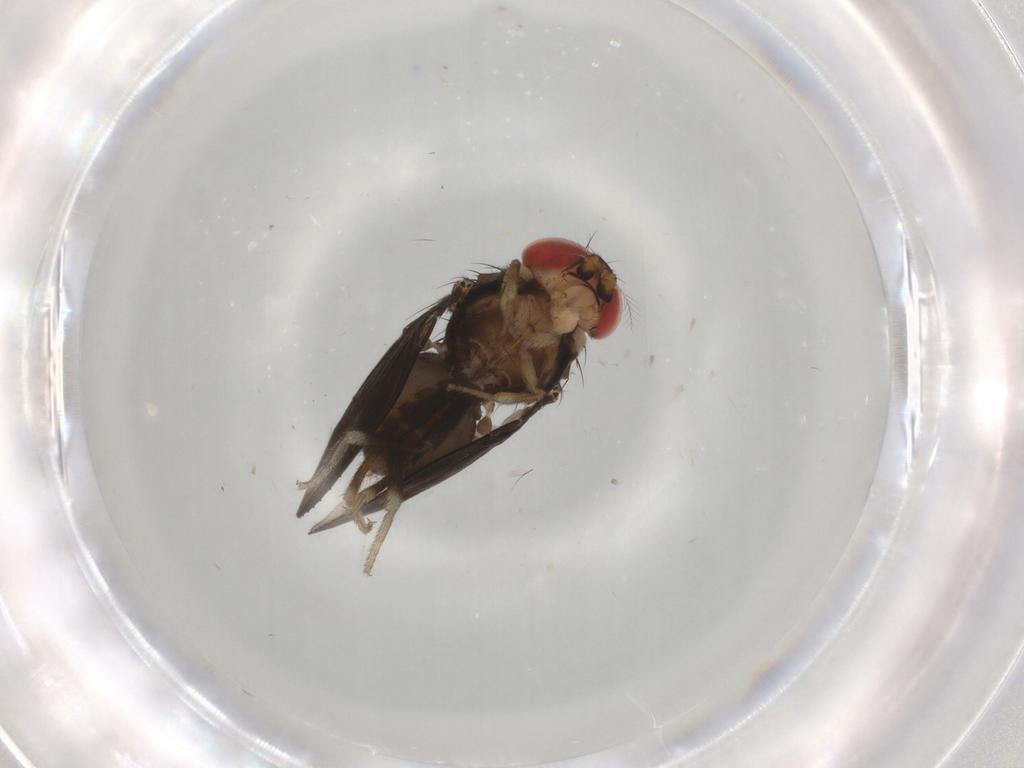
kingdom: Animalia
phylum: Arthropoda
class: Insecta
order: Diptera
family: Drosophilidae
